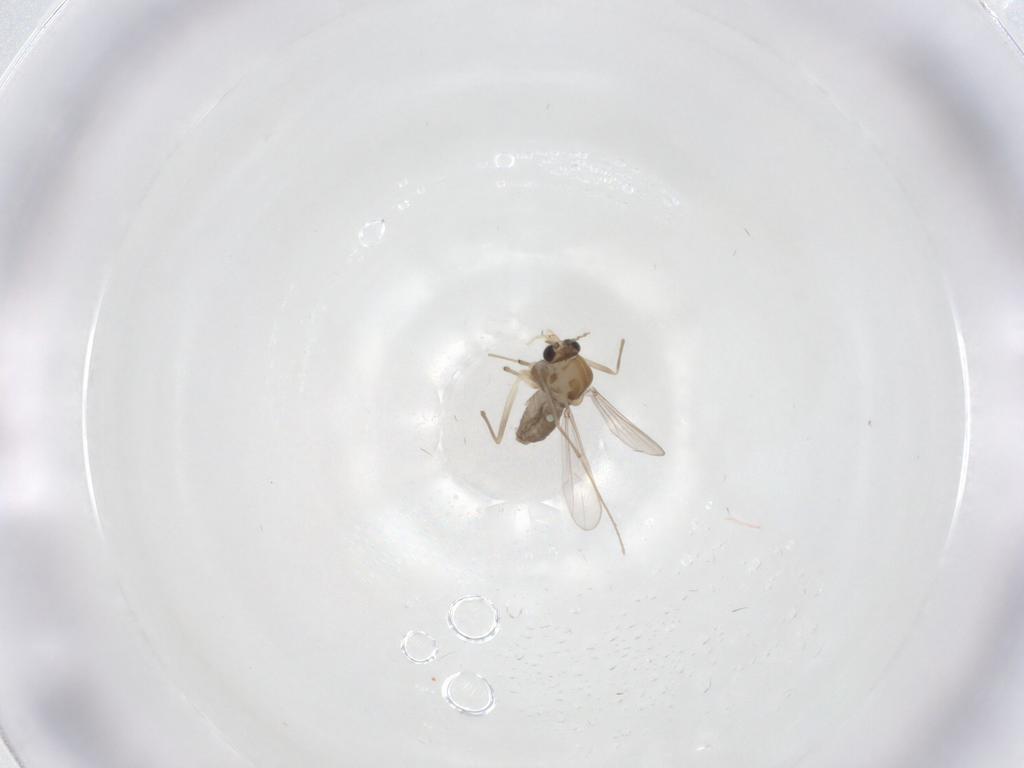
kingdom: Animalia
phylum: Arthropoda
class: Insecta
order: Diptera
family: Chironomidae
